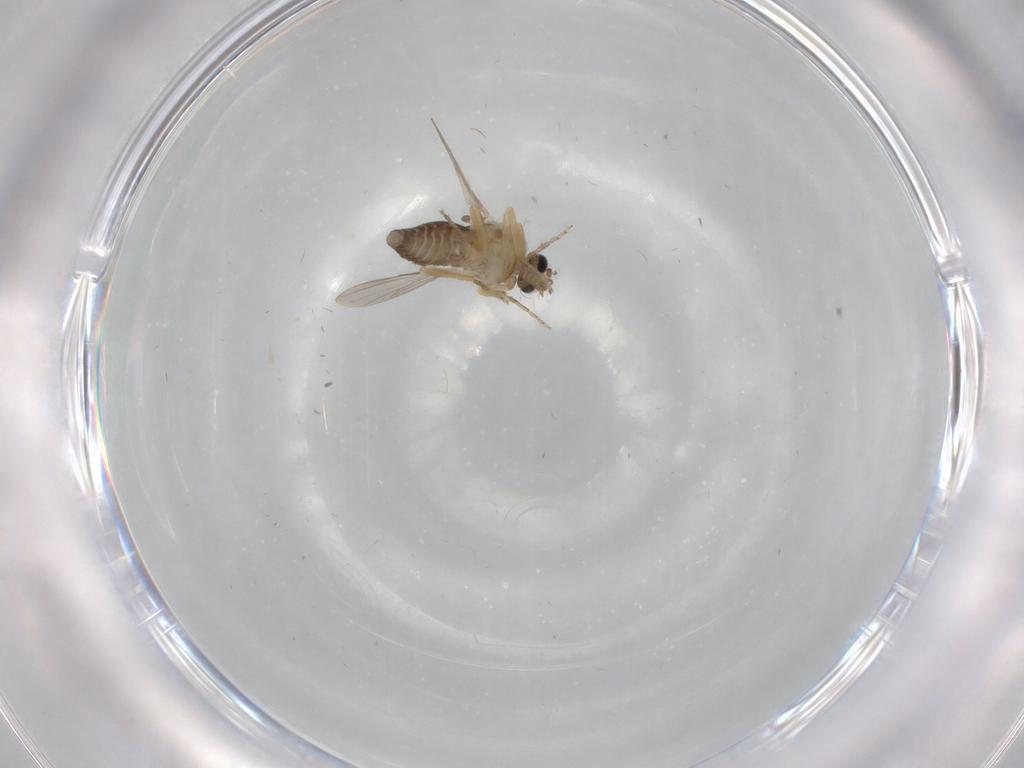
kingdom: Animalia
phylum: Arthropoda
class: Insecta
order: Diptera
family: Ceratopogonidae
